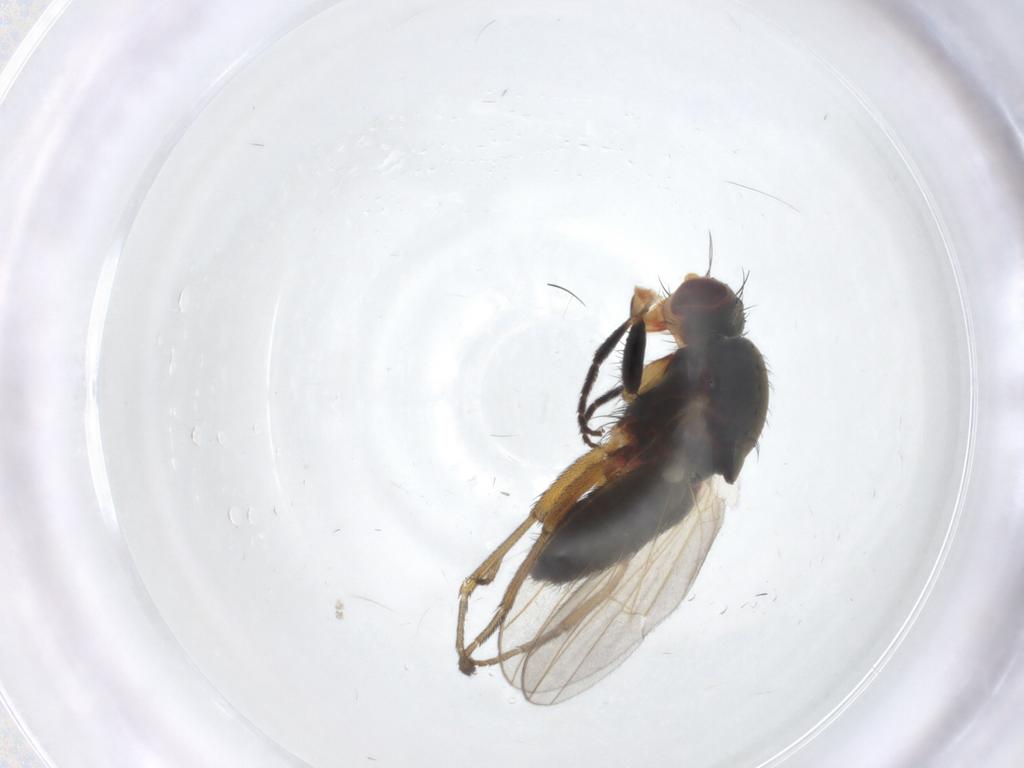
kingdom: Animalia
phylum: Arthropoda
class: Insecta
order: Diptera
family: Heleomyzidae
